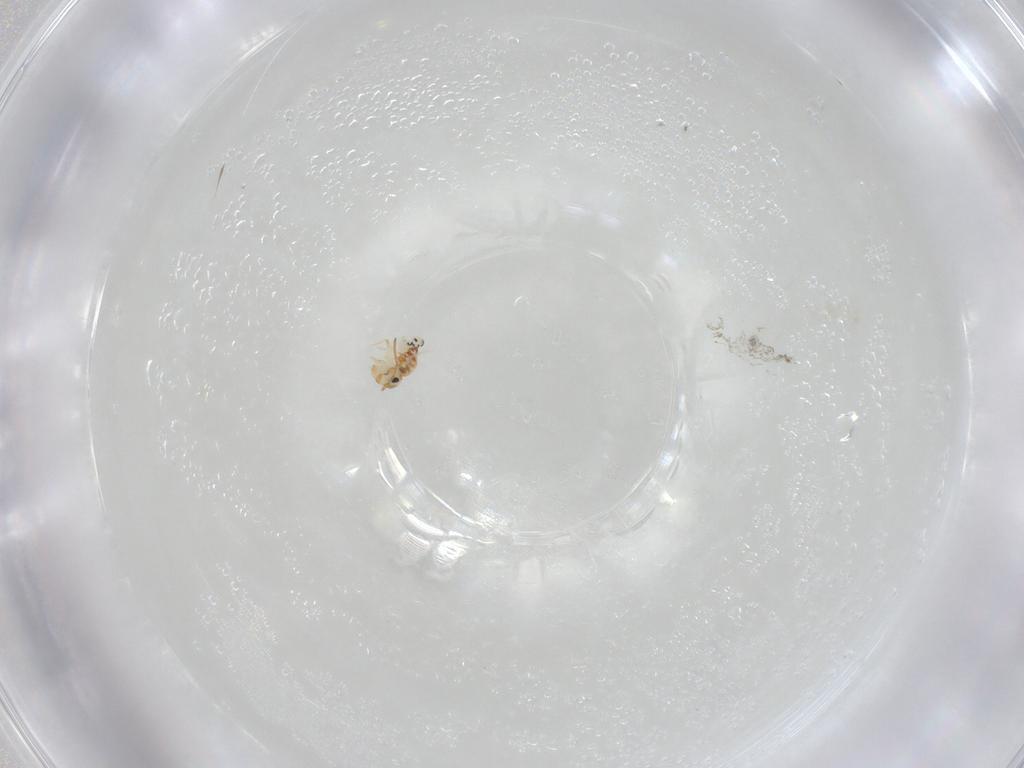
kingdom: Animalia
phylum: Arthropoda
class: Collembola
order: Symphypleona
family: Bourletiellidae
